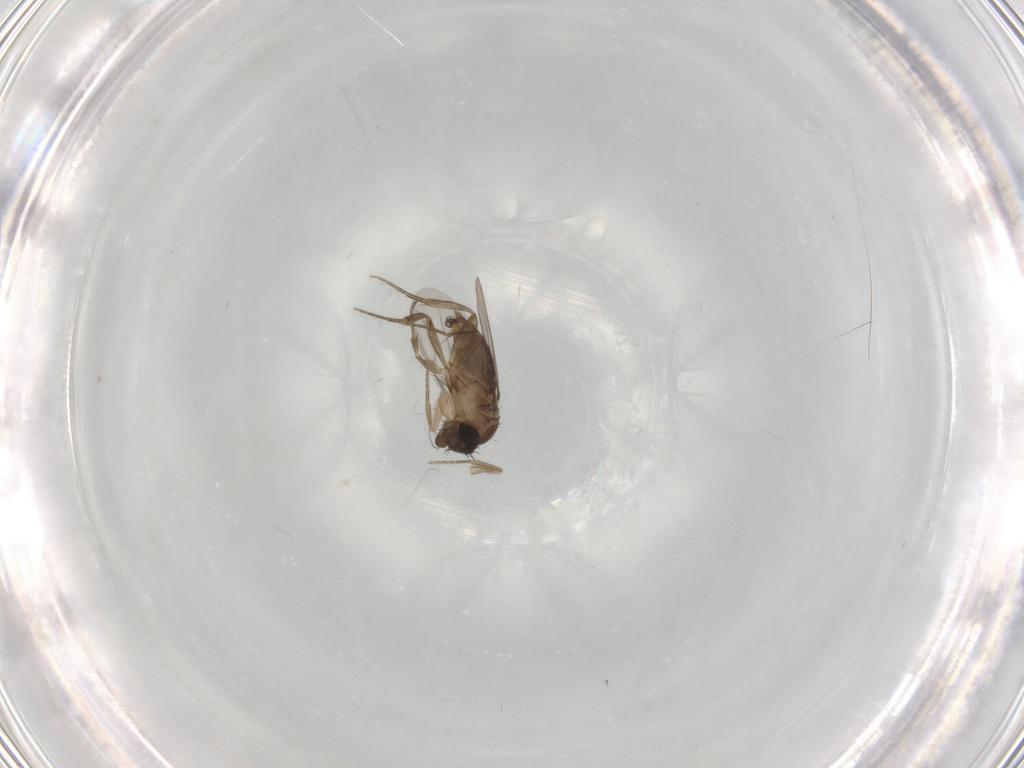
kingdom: Animalia
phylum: Arthropoda
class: Insecta
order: Diptera
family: Phoridae
